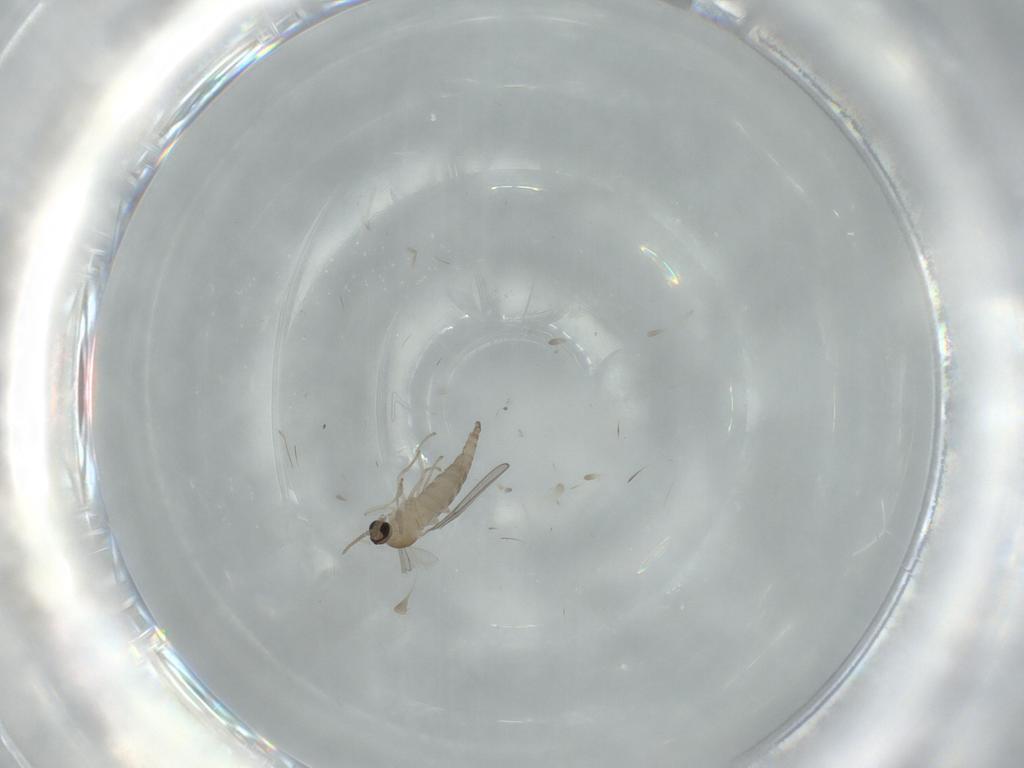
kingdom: Animalia
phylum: Arthropoda
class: Insecta
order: Diptera
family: Cecidomyiidae
